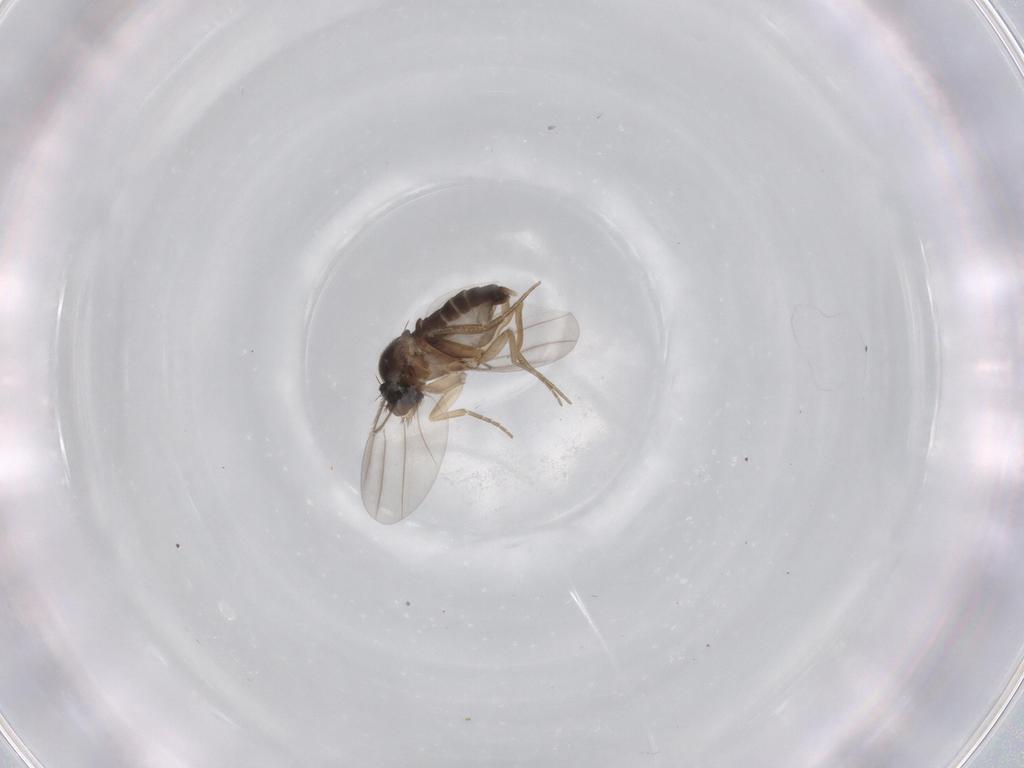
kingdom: Animalia
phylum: Arthropoda
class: Insecta
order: Diptera
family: Phoridae
